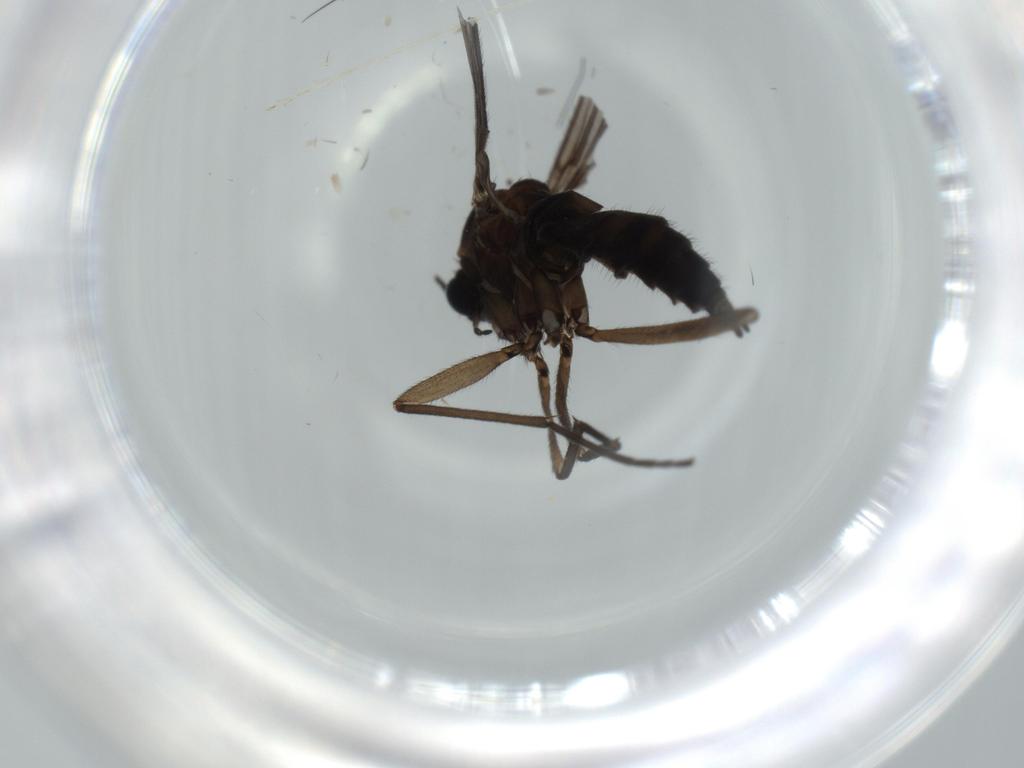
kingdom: Animalia
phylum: Arthropoda
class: Insecta
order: Diptera
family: Sciaridae
